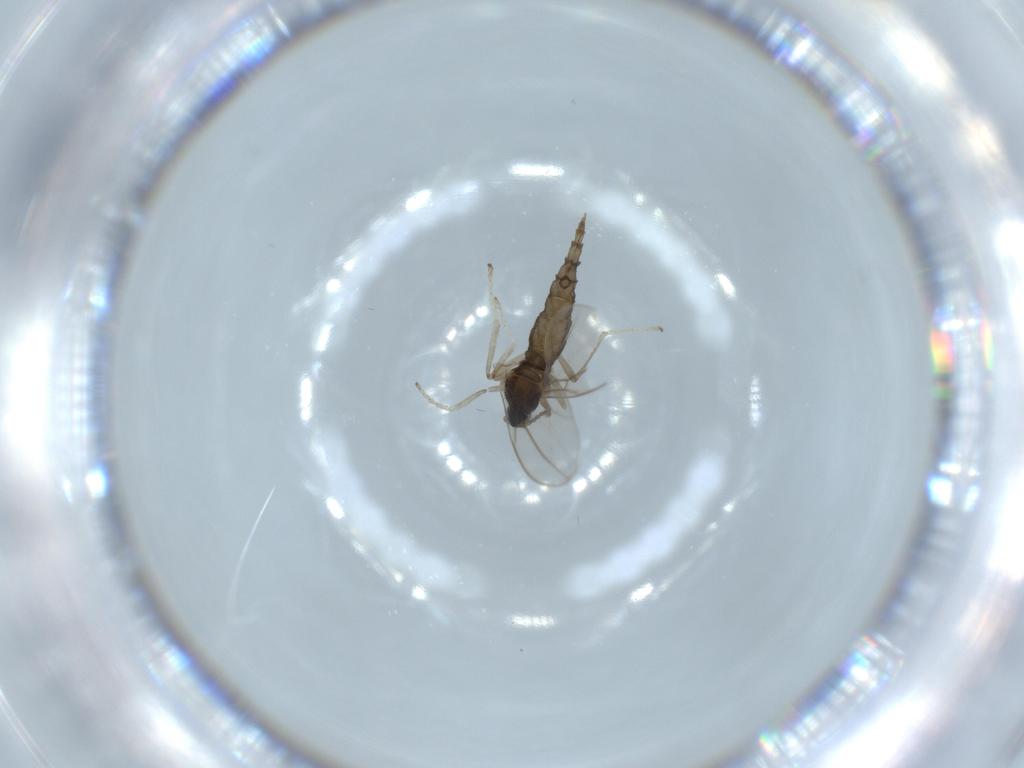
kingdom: Animalia
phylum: Arthropoda
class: Insecta
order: Diptera
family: Cecidomyiidae
